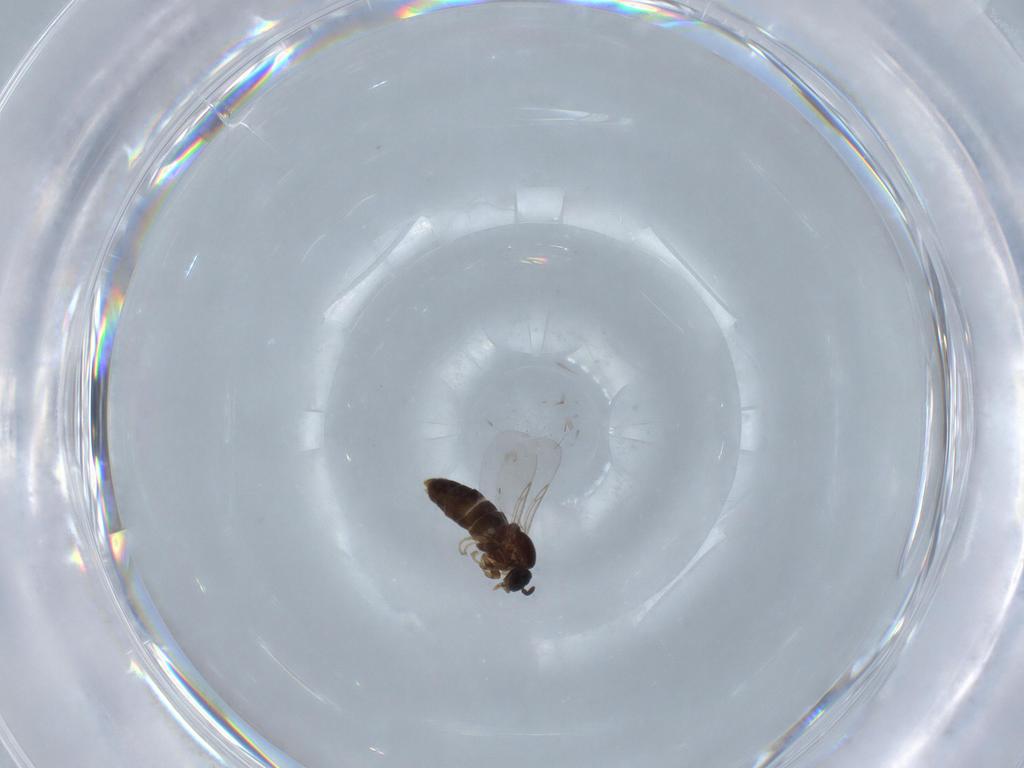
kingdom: Animalia
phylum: Arthropoda
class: Insecta
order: Diptera
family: Scatopsidae
